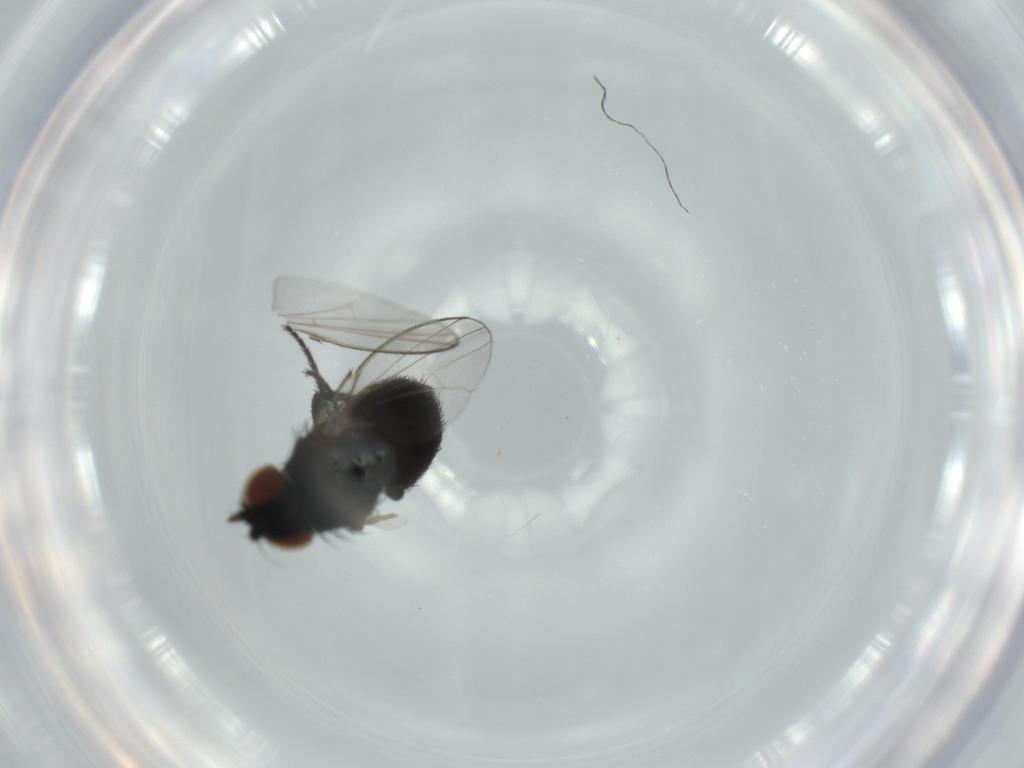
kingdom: Animalia
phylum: Arthropoda
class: Insecta
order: Diptera
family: Milichiidae
